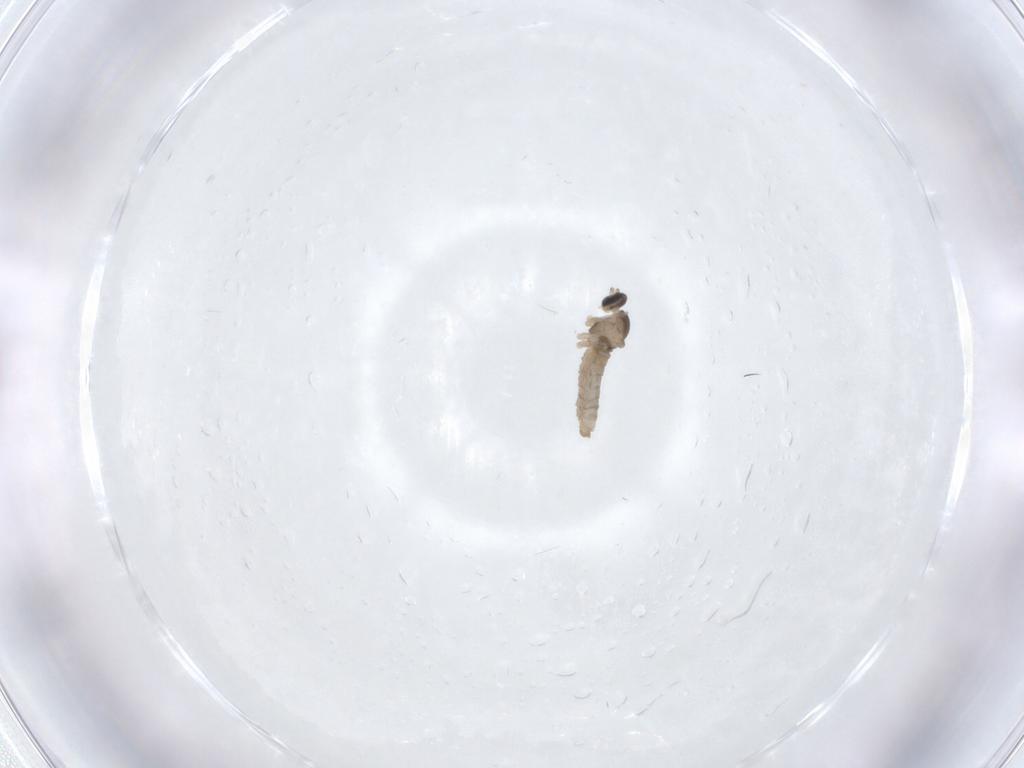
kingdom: Animalia
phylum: Arthropoda
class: Insecta
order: Diptera
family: Cecidomyiidae
